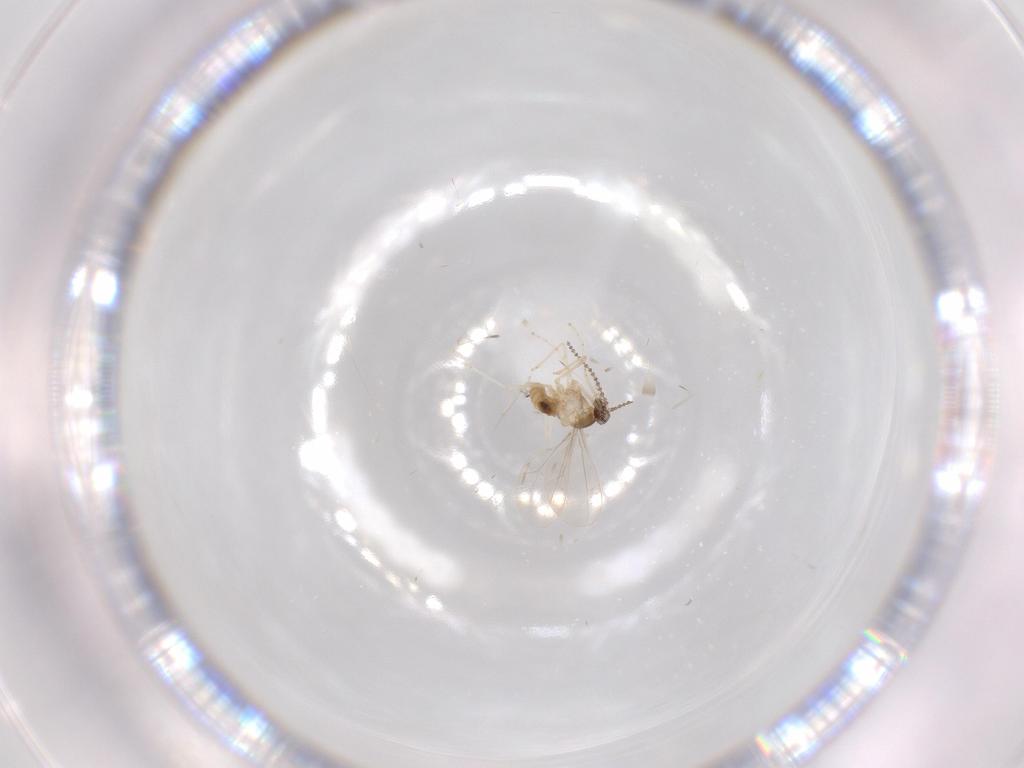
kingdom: Animalia
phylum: Arthropoda
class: Insecta
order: Diptera
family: Cecidomyiidae
